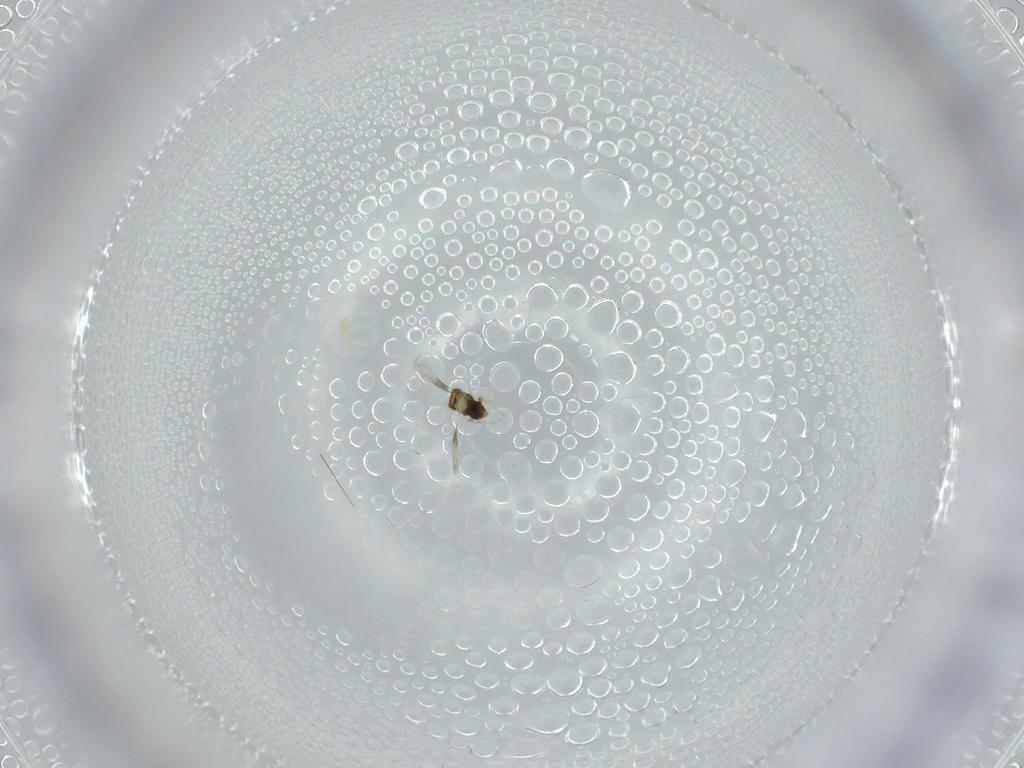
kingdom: Animalia
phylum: Arthropoda
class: Insecta
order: Hymenoptera
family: Aphelinidae
